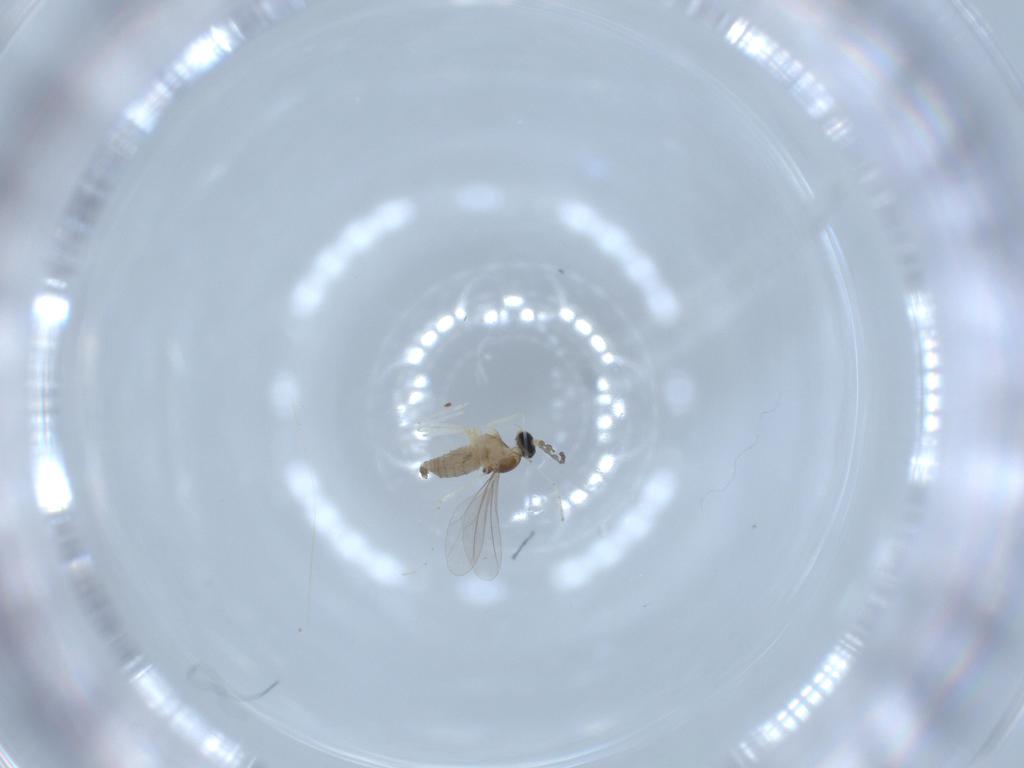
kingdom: Animalia
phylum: Arthropoda
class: Insecta
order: Diptera
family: Cecidomyiidae
